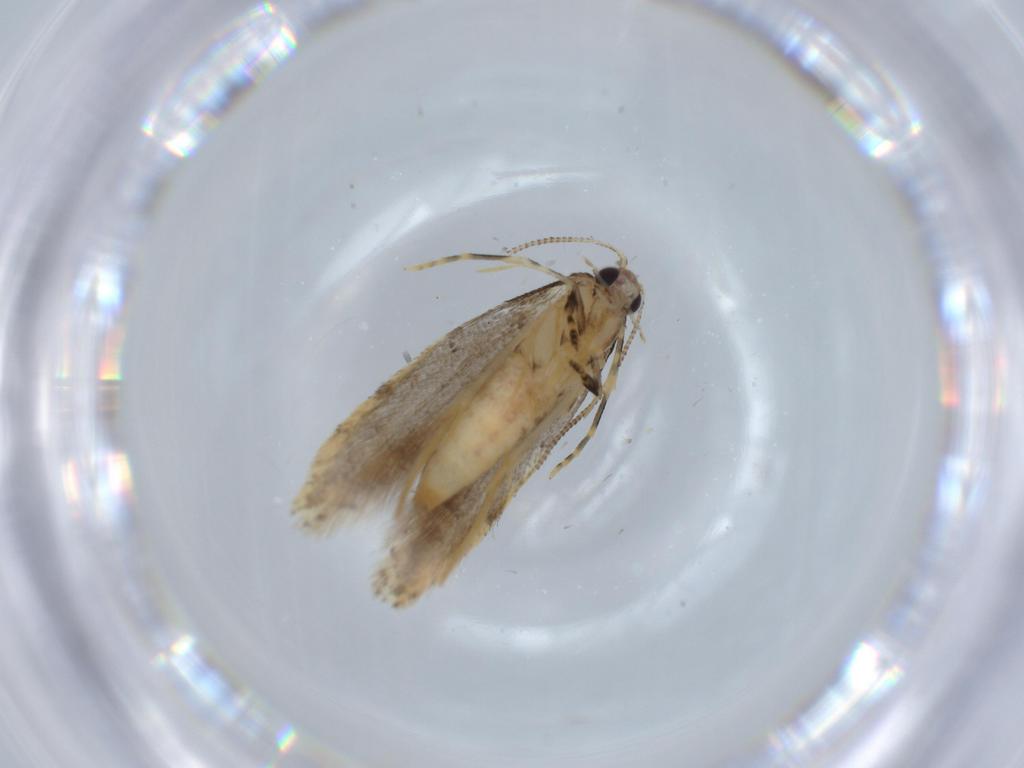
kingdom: Animalia
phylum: Arthropoda
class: Insecta
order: Lepidoptera
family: Tineidae
